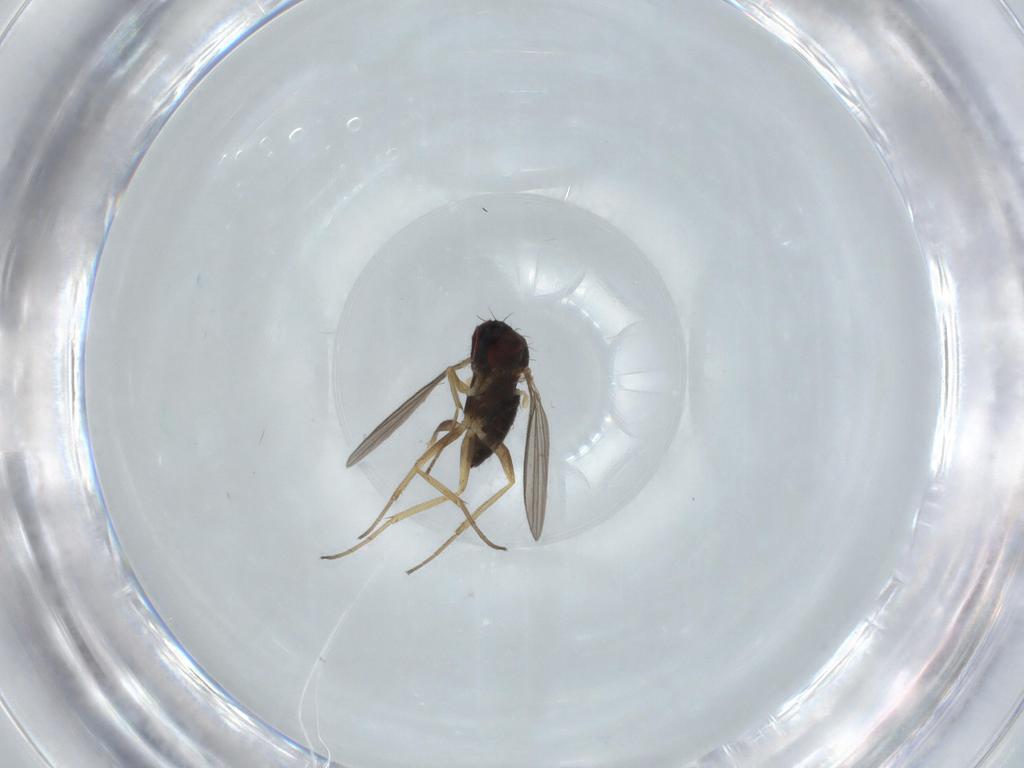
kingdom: Animalia
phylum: Arthropoda
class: Insecta
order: Diptera
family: Dolichopodidae
